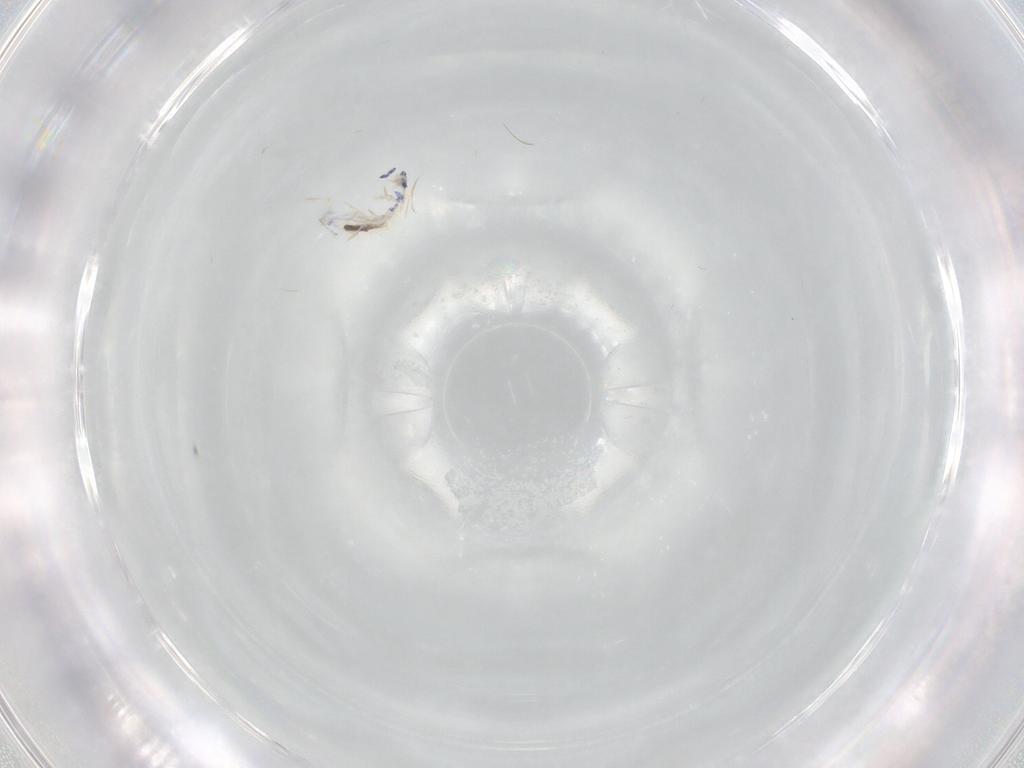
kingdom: Animalia
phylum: Arthropoda
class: Collembola
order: Entomobryomorpha
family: Entomobryidae
